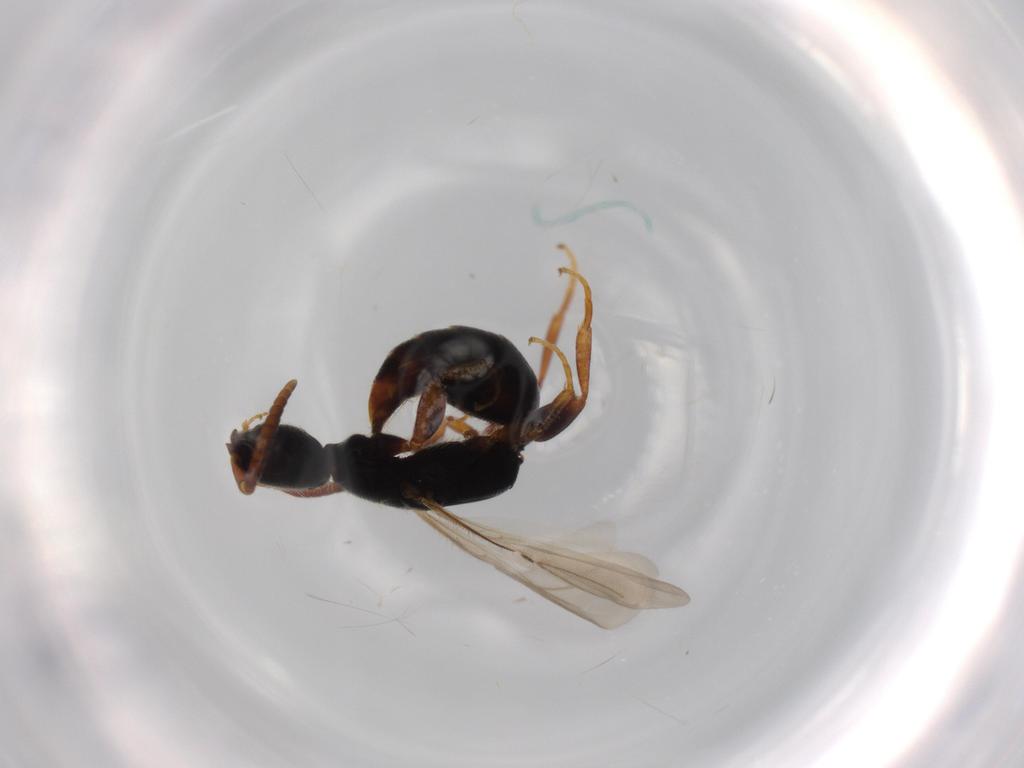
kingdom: Animalia
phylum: Arthropoda
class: Insecta
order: Hymenoptera
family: Bethylidae
